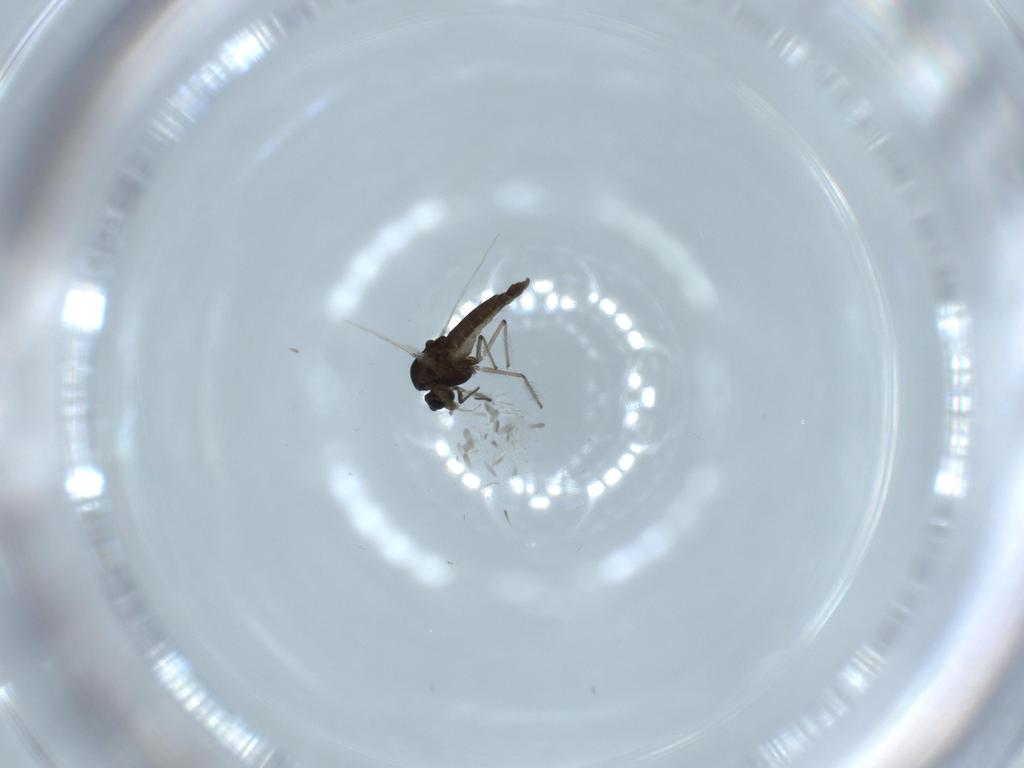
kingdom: Animalia
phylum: Arthropoda
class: Insecta
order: Diptera
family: Chironomidae
